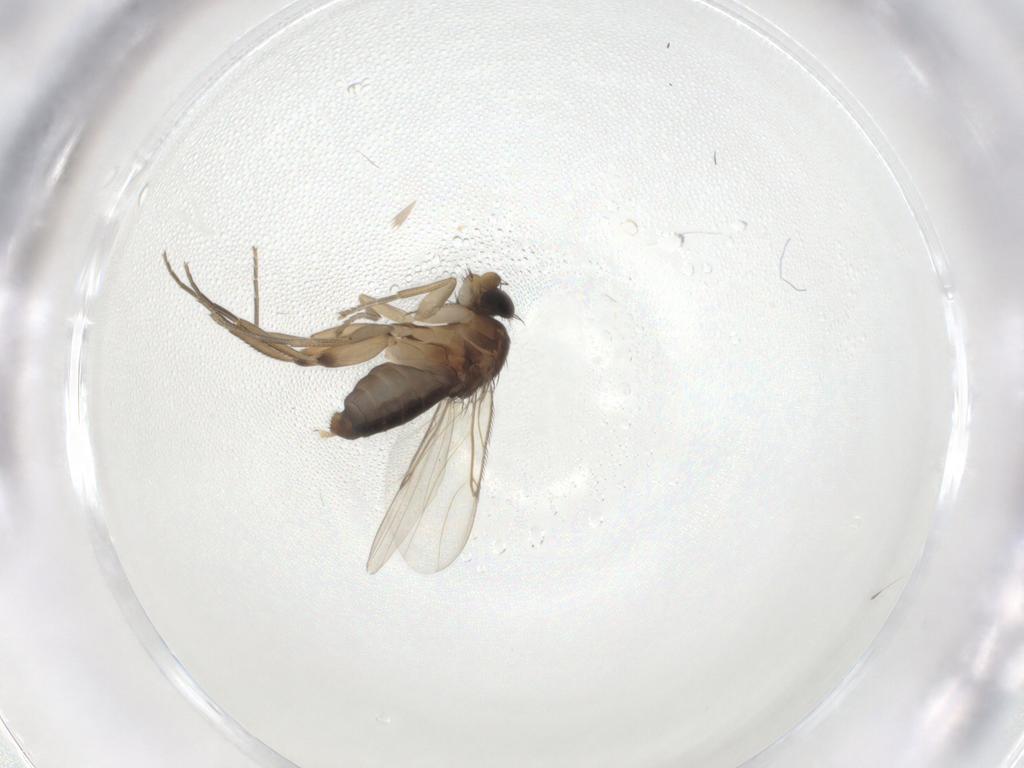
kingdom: Animalia
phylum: Arthropoda
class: Insecta
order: Diptera
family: Phoridae
